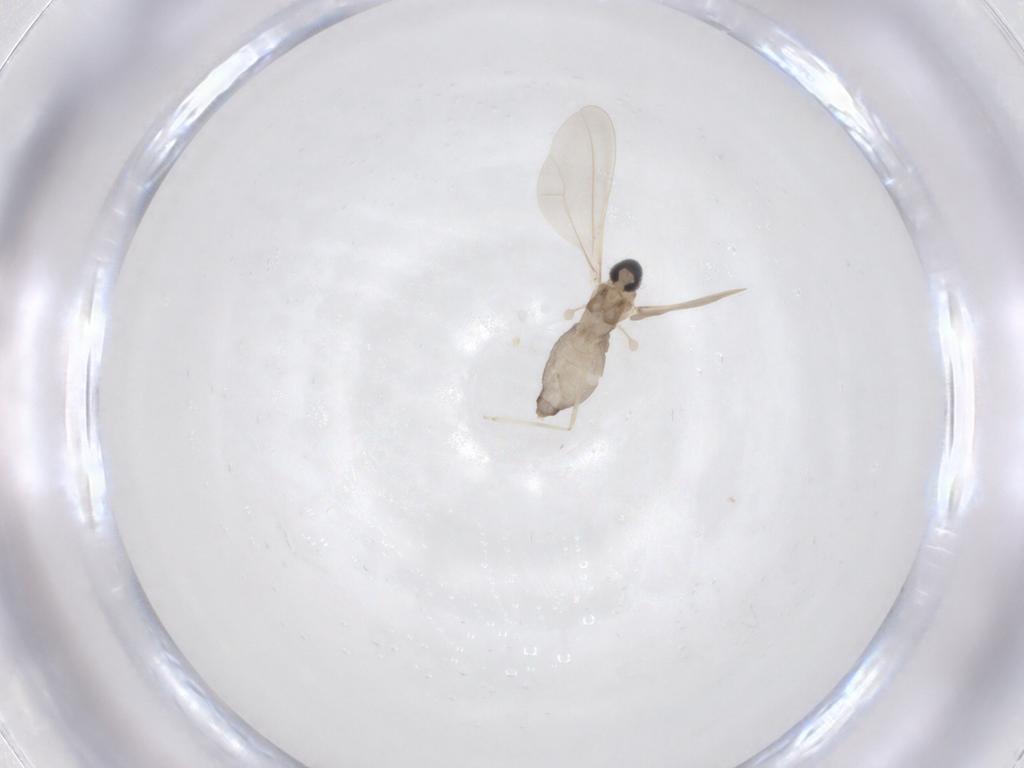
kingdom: Animalia
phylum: Arthropoda
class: Insecta
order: Diptera
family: Cecidomyiidae
